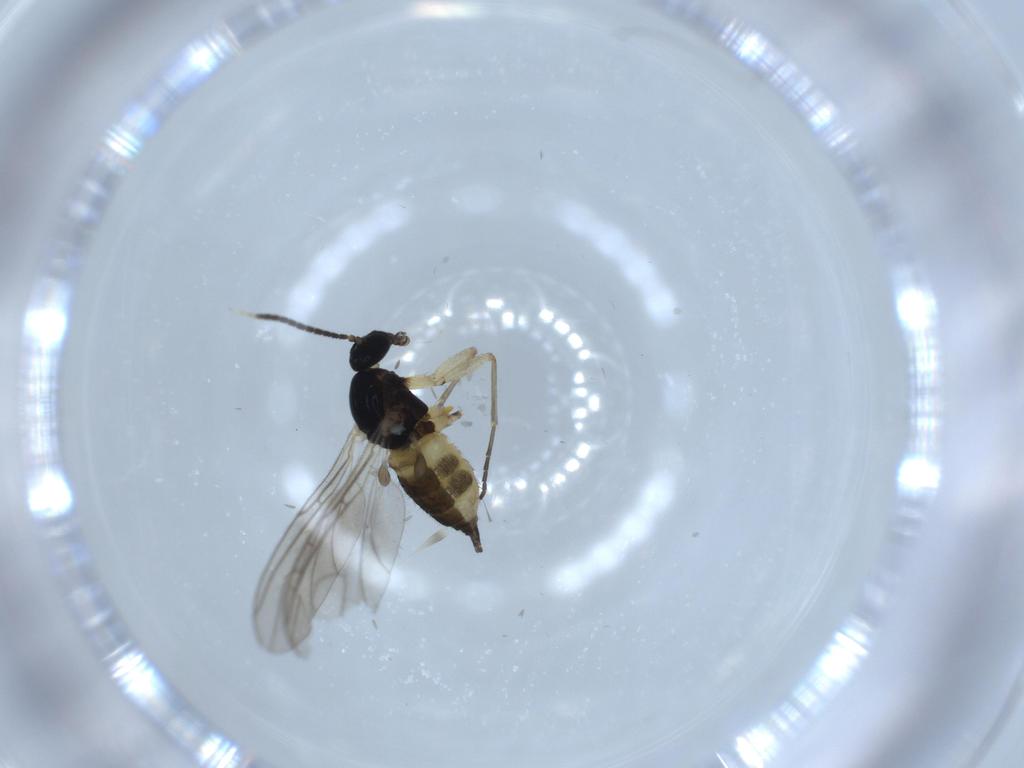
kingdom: Animalia
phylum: Arthropoda
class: Insecta
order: Diptera
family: Sciaridae
